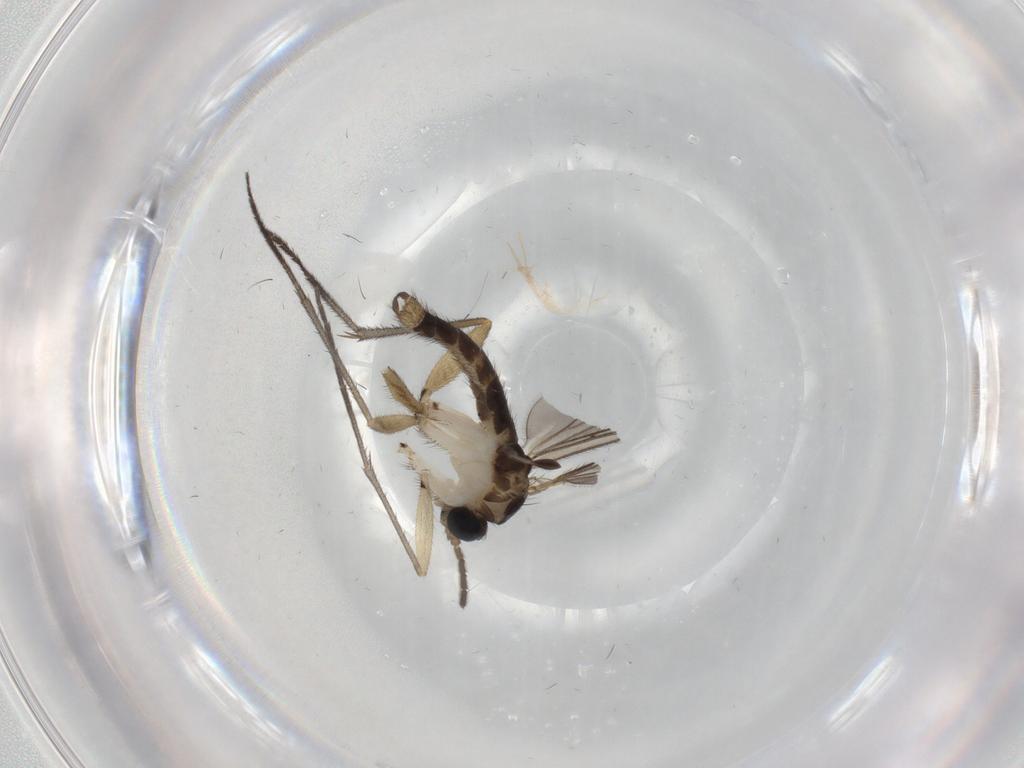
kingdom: Animalia
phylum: Arthropoda
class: Insecta
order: Diptera
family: Sciaridae
